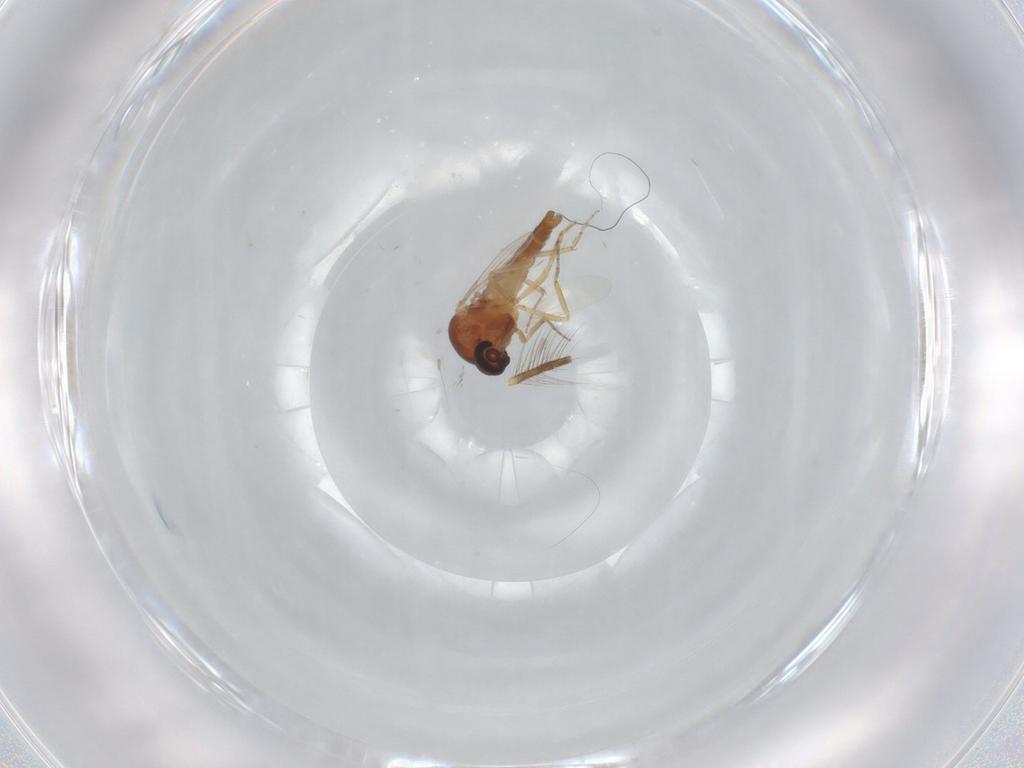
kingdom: Animalia
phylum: Arthropoda
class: Insecta
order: Diptera
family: Ceratopogonidae
